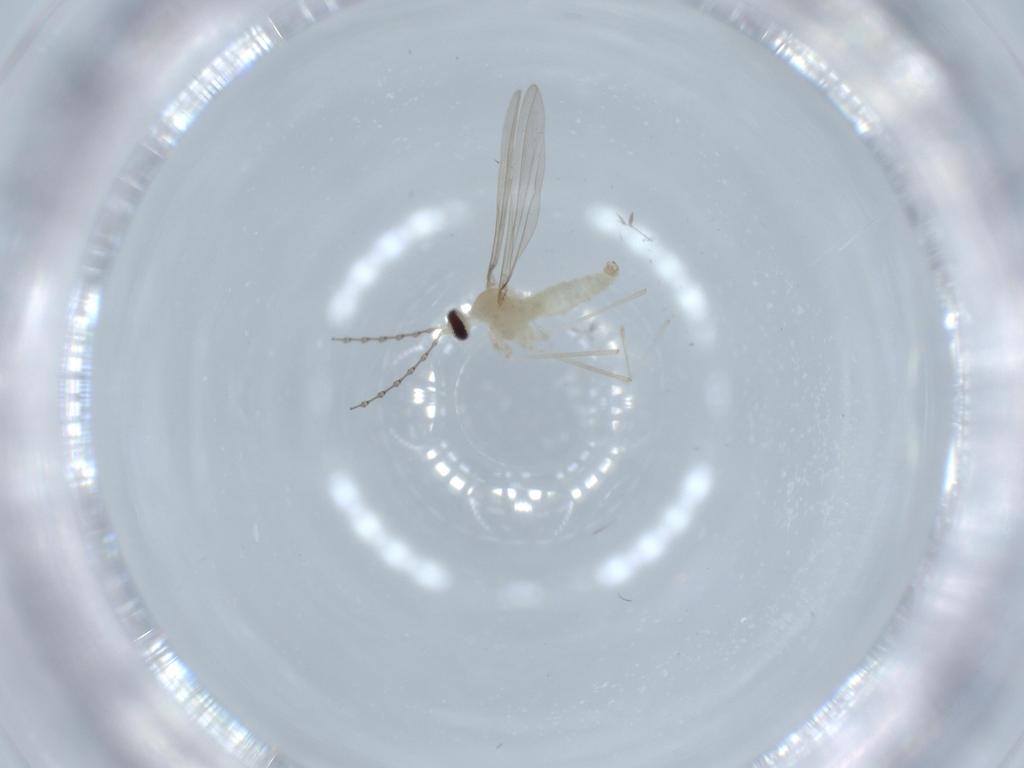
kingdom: Animalia
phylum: Arthropoda
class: Insecta
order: Diptera
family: Cecidomyiidae
